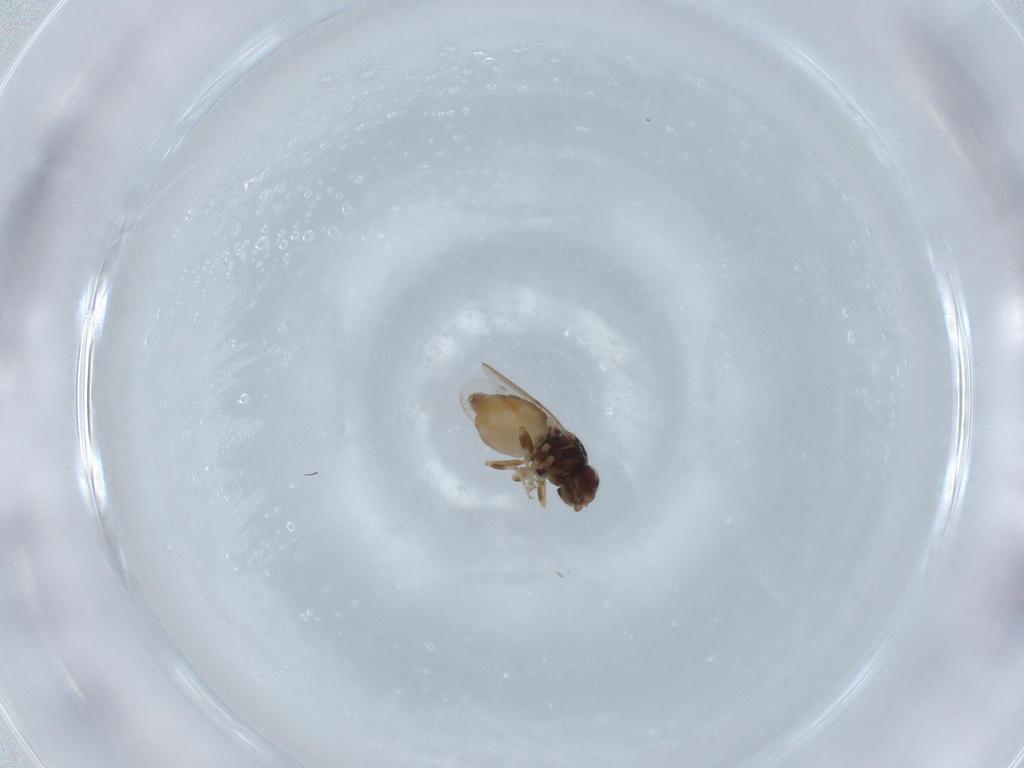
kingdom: Animalia
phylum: Arthropoda
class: Insecta
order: Diptera
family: Chloropidae
